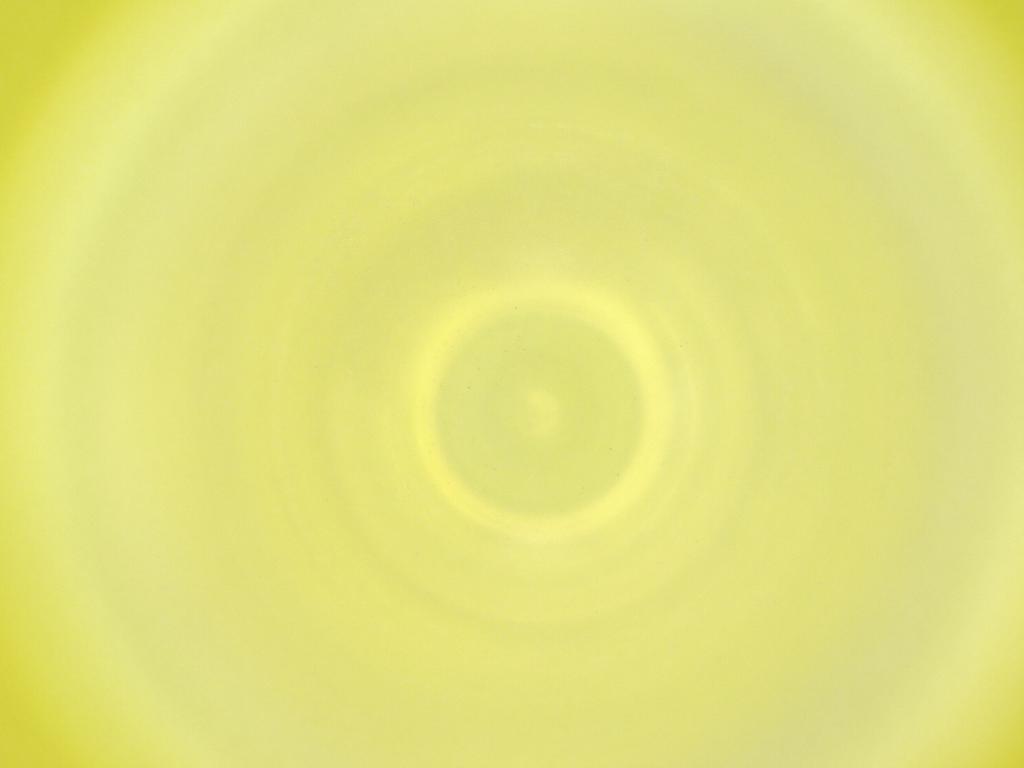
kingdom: Animalia
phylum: Arthropoda
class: Insecta
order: Diptera
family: Cecidomyiidae
